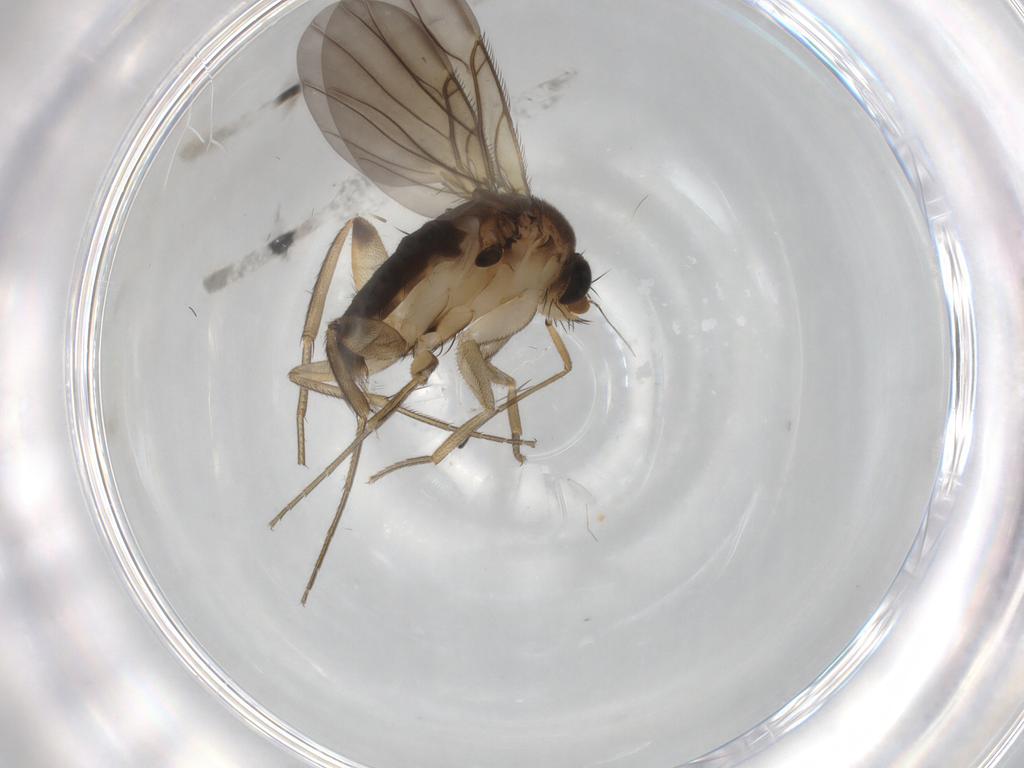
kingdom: Animalia
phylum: Arthropoda
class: Insecta
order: Diptera
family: Phoridae
